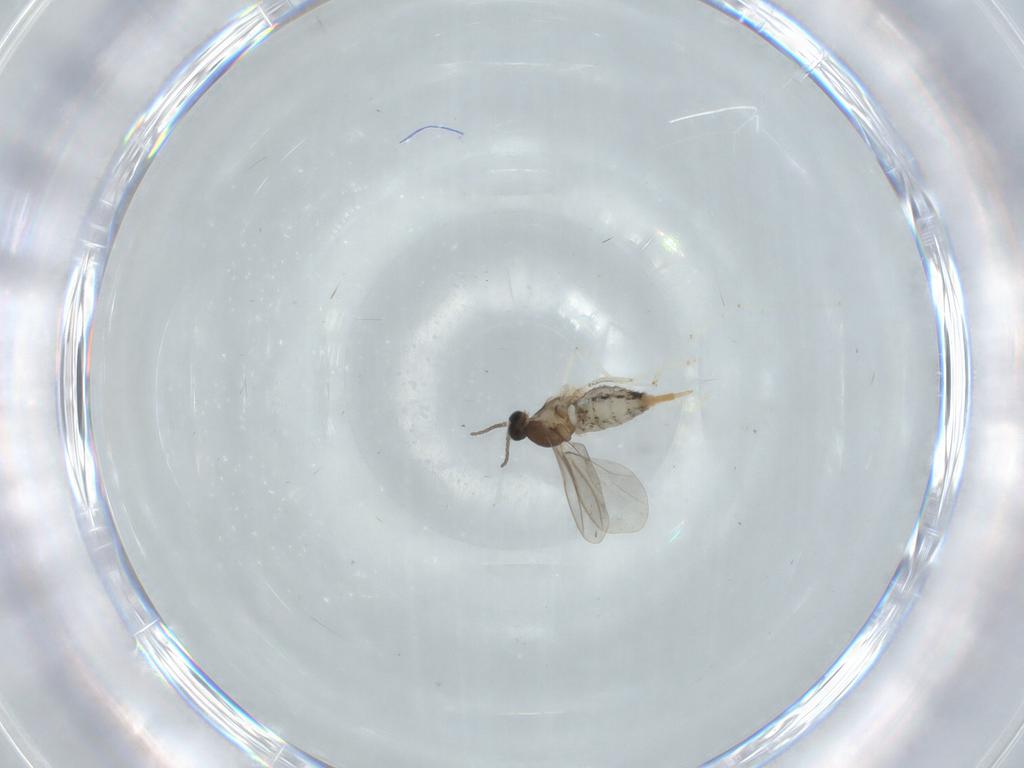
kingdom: Animalia
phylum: Arthropoda
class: Insecta
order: Diptera
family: Cecidomyiidae
